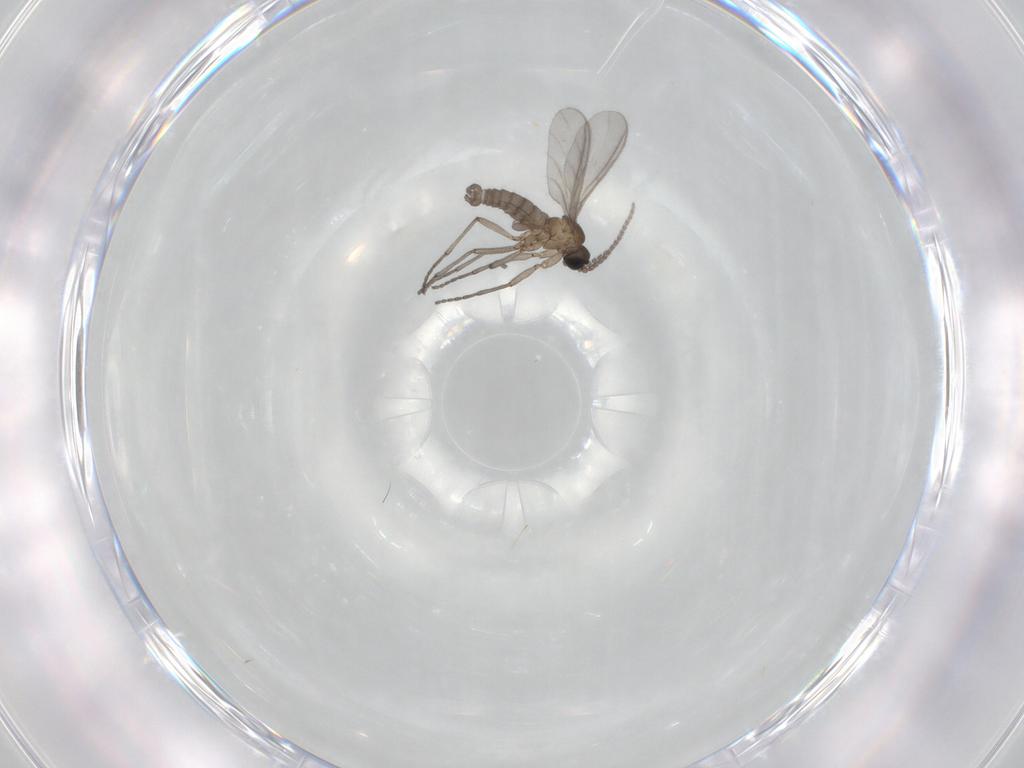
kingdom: Animalia
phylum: Arthropoda
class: Insecta
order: Diptera
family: Sciaridae
